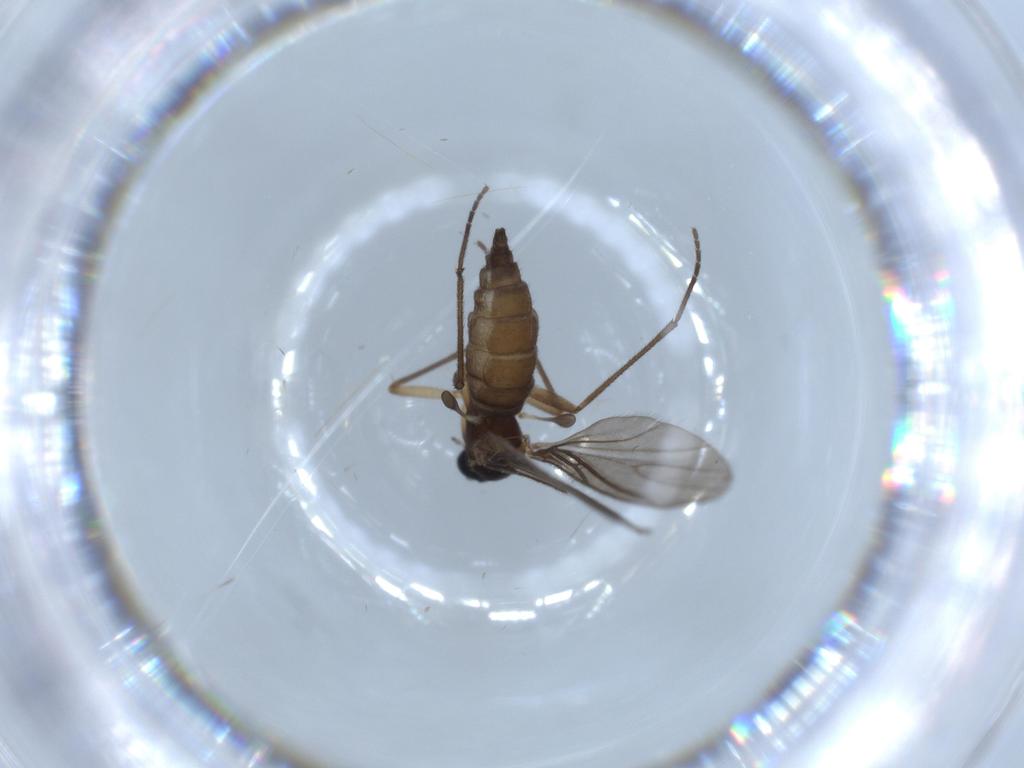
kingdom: Animalia
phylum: Arthropoda
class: Insecta
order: Diptera
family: Sciaridae
